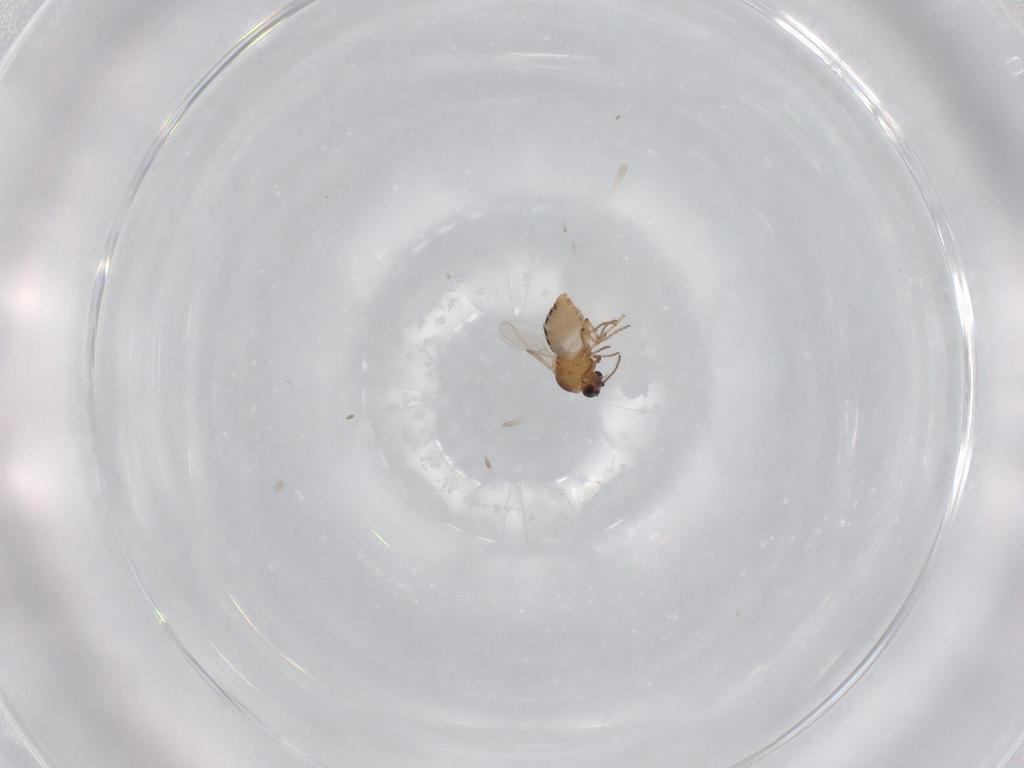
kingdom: Animalia
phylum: Arthropoda
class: Insecta
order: Diptera
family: Ceratopogonidae
